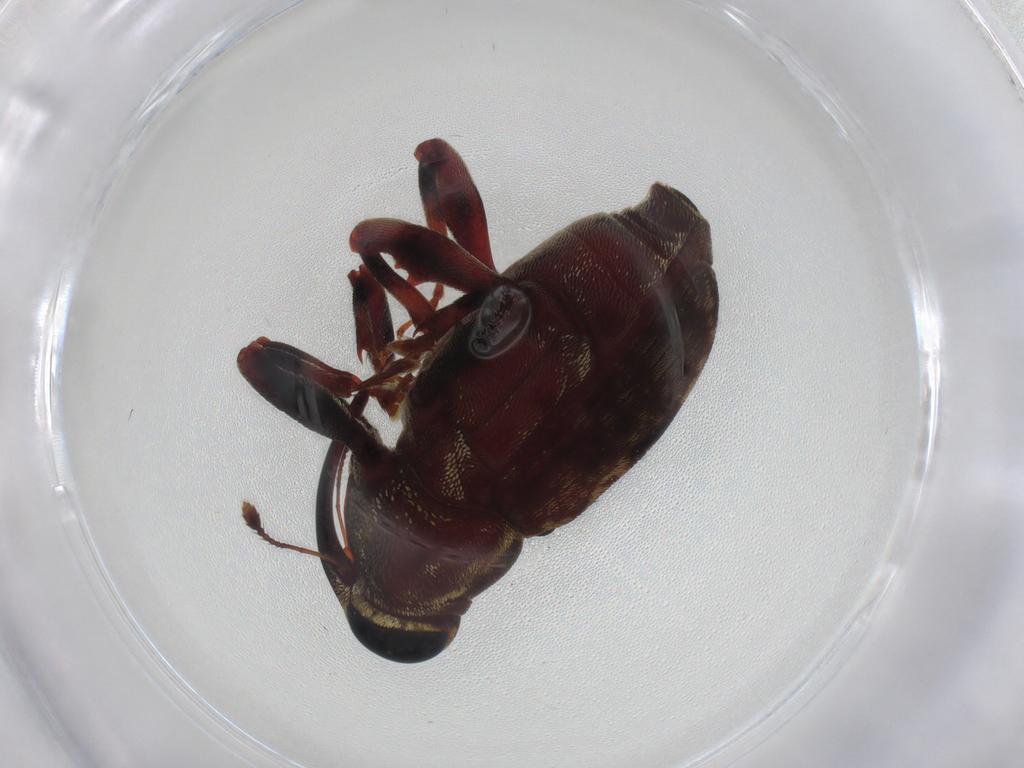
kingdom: Animalia
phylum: Arthropoda
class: Insecta
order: Coleoptera
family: Curculionidae
